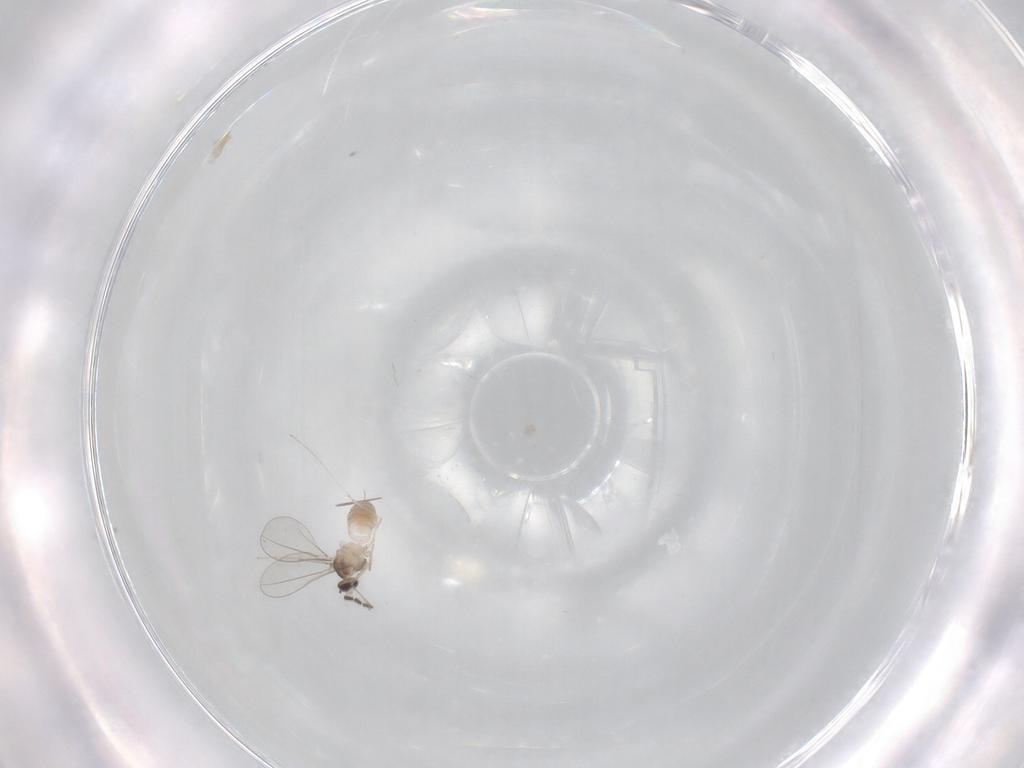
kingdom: Animalia
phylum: Arthropoda
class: Insecta
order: Diptera
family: Cecidomyiidae
